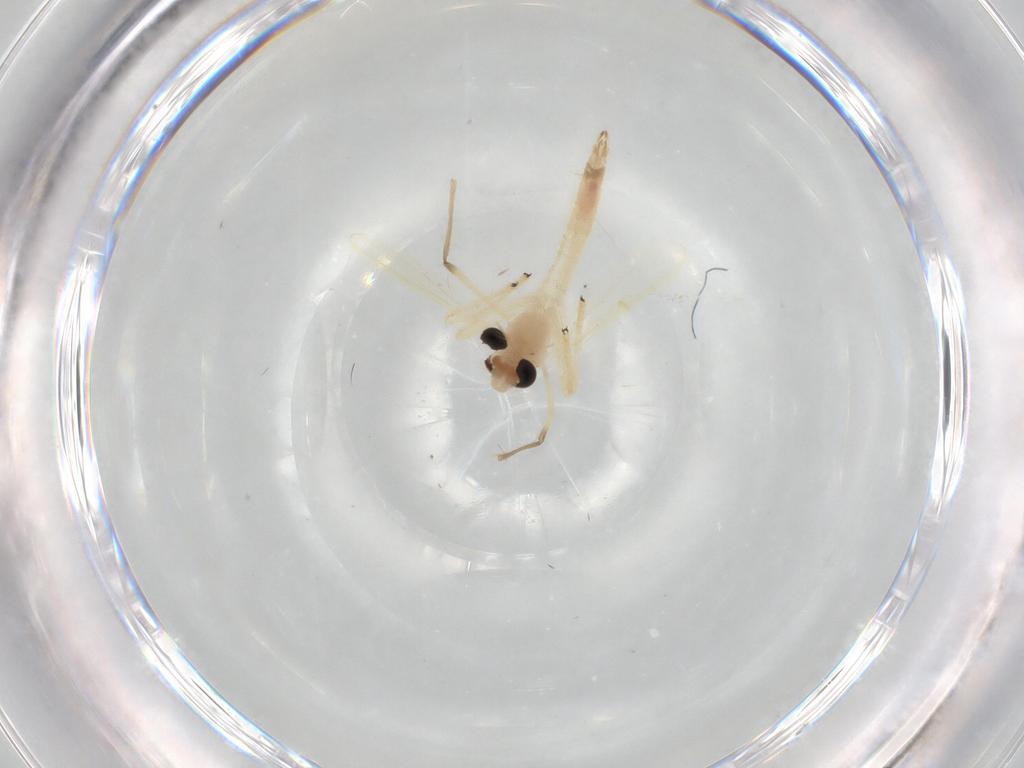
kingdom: Animalia
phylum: Arthropoda
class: Insecta
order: Diptera
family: Chironomidae
